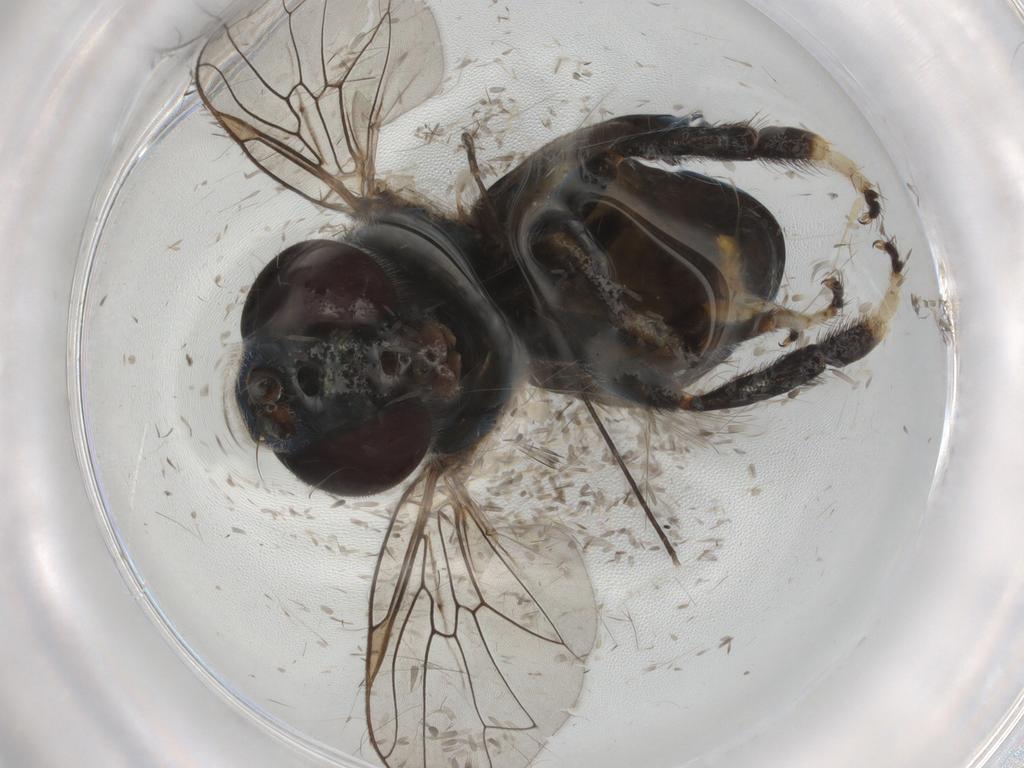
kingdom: Animalia
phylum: Arthropoda
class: Insecta
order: Diptera
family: Syrphidae
